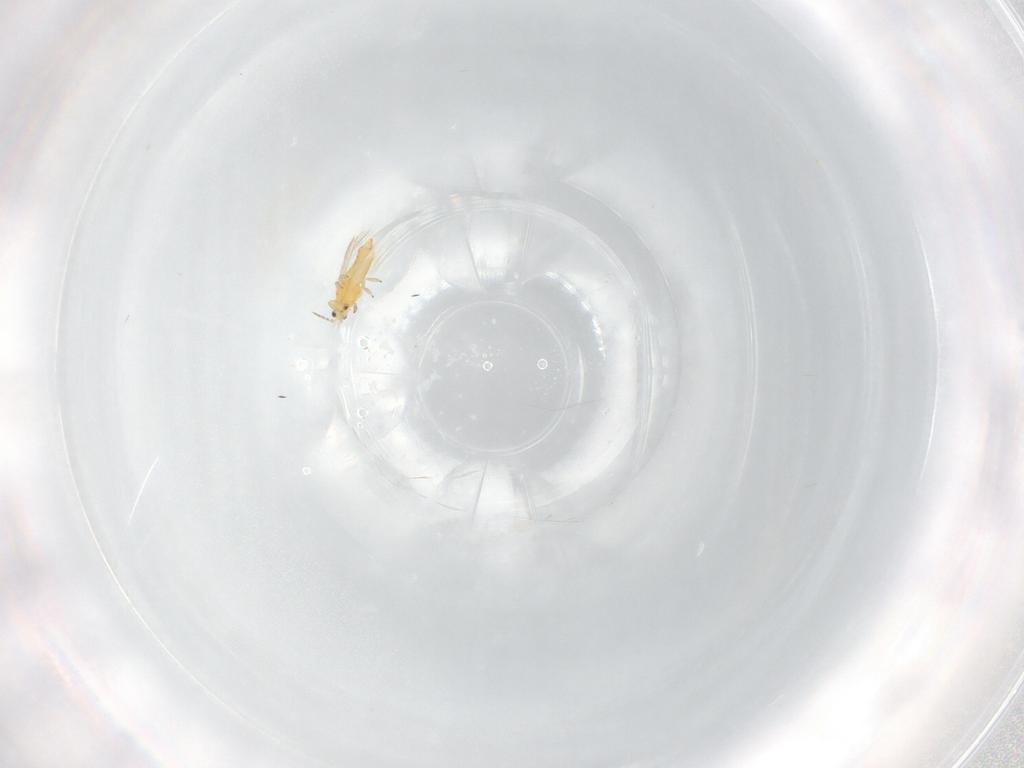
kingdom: Animalia
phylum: Arthropoda
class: Insecta
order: Thysanoptera
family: Thripidae
